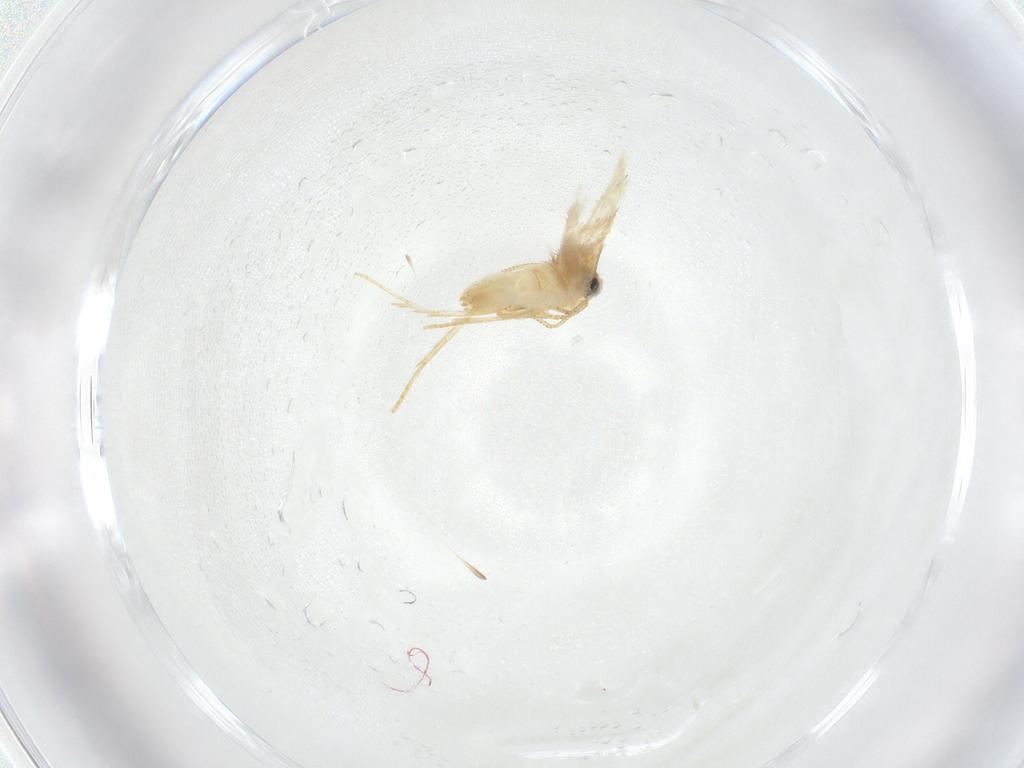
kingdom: Animalia
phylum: Arthropoda
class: Insecta
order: Lepidoptera
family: Nepticulidae
